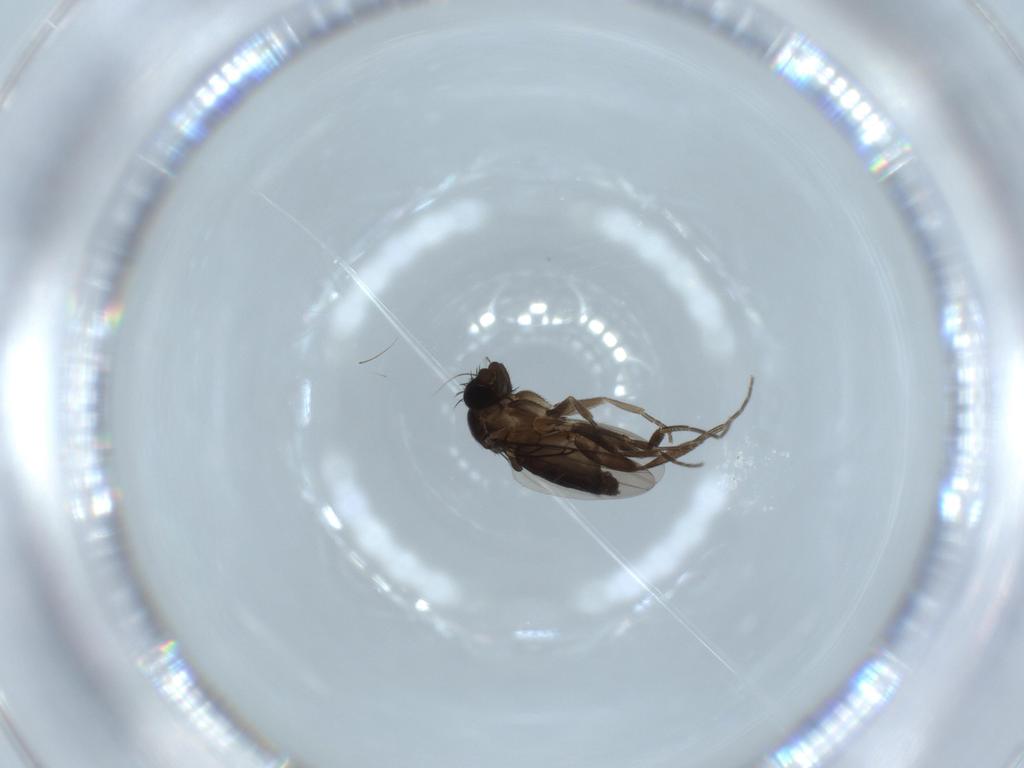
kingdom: Animalia
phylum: Arthropoda
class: Insecta
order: Diptera
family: Phoridae
